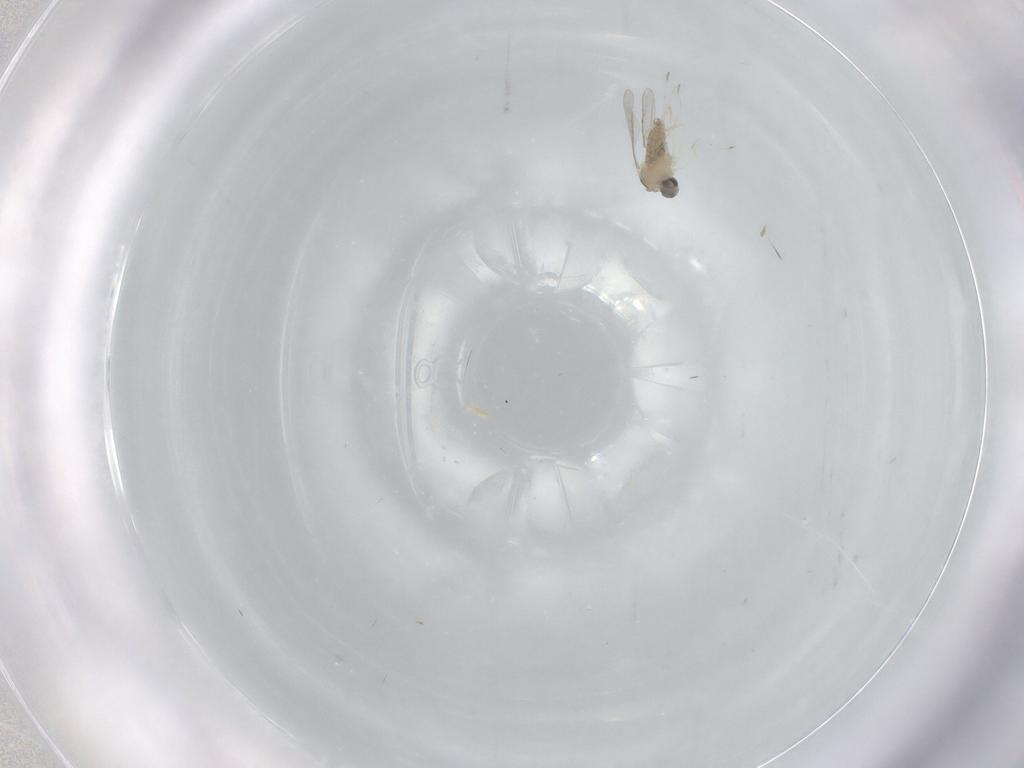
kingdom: Animalia
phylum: Arthropoda
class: Insecta
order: Diptera
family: Cecidomyiidae
